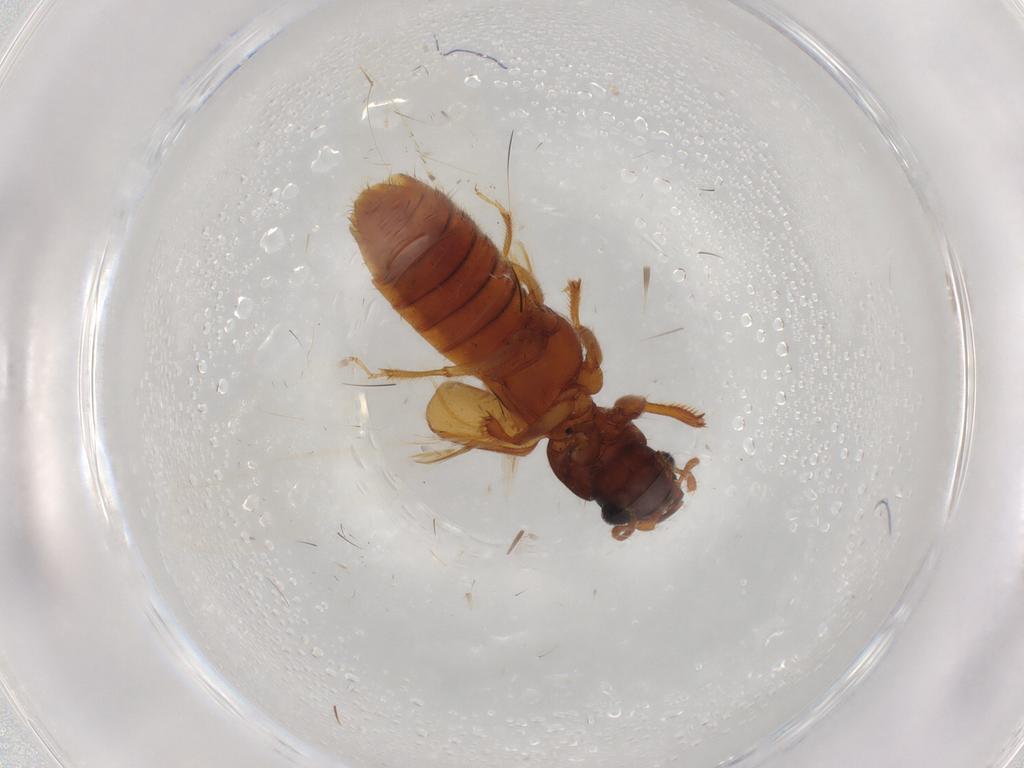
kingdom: Animalia
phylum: Arthropoda
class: Insecta
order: Coleoptera
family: Staphylinidae
